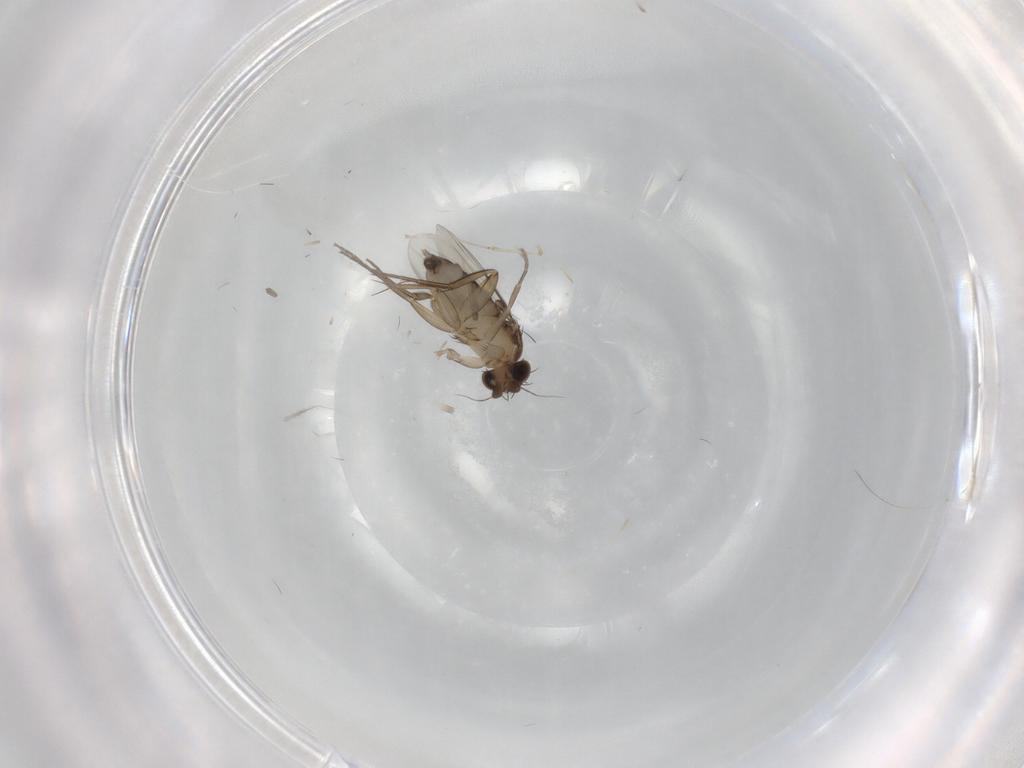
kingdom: Animalia
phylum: Arthropoda
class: Insecta
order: Diptera
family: Phoridae
